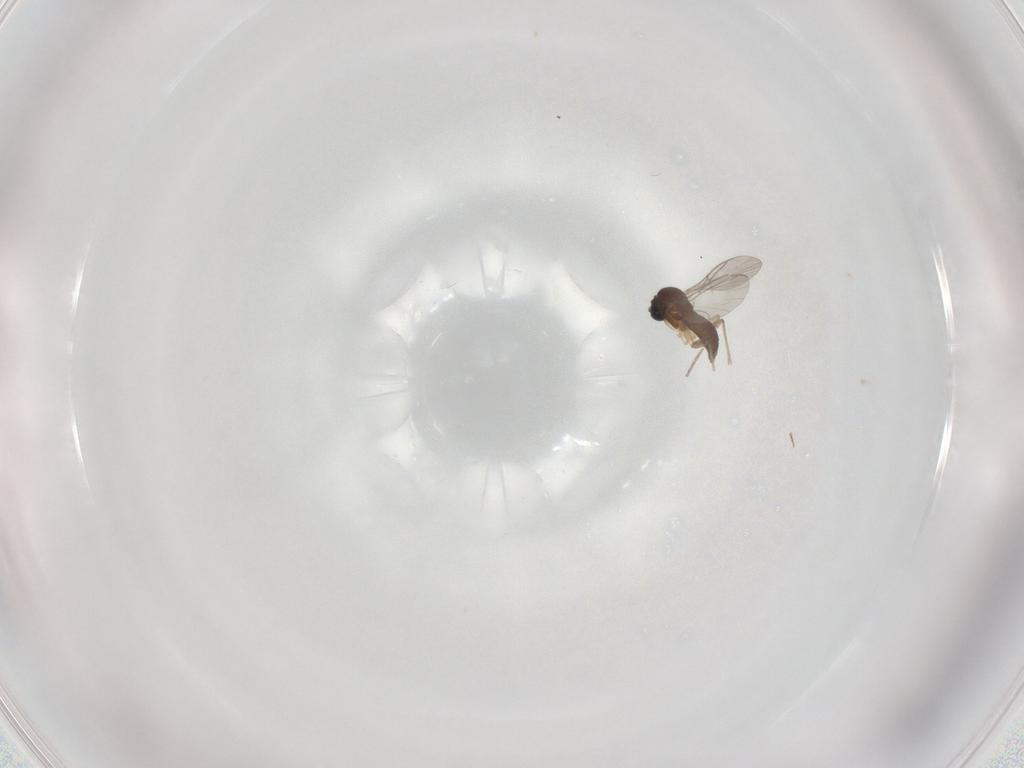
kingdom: Animalia
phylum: Arthropoda
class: Insecta
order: Diptera
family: Sciaridae
